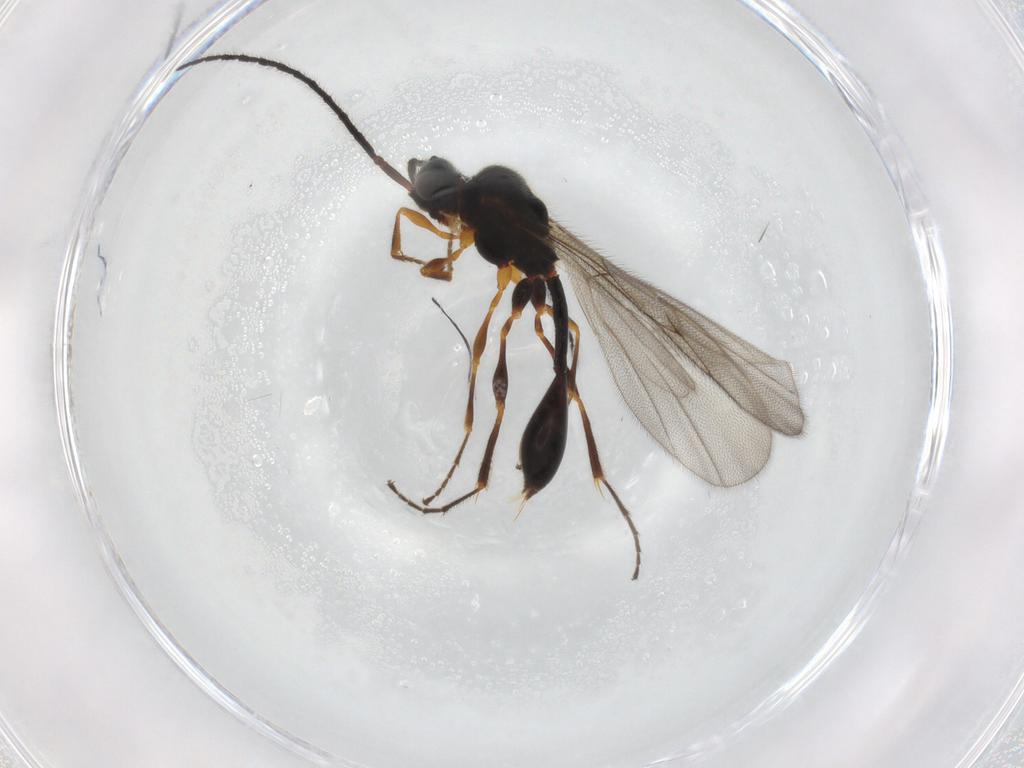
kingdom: Animalia
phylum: Arthropoda
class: Insecta
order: Hymenoptera
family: Diapriidae
